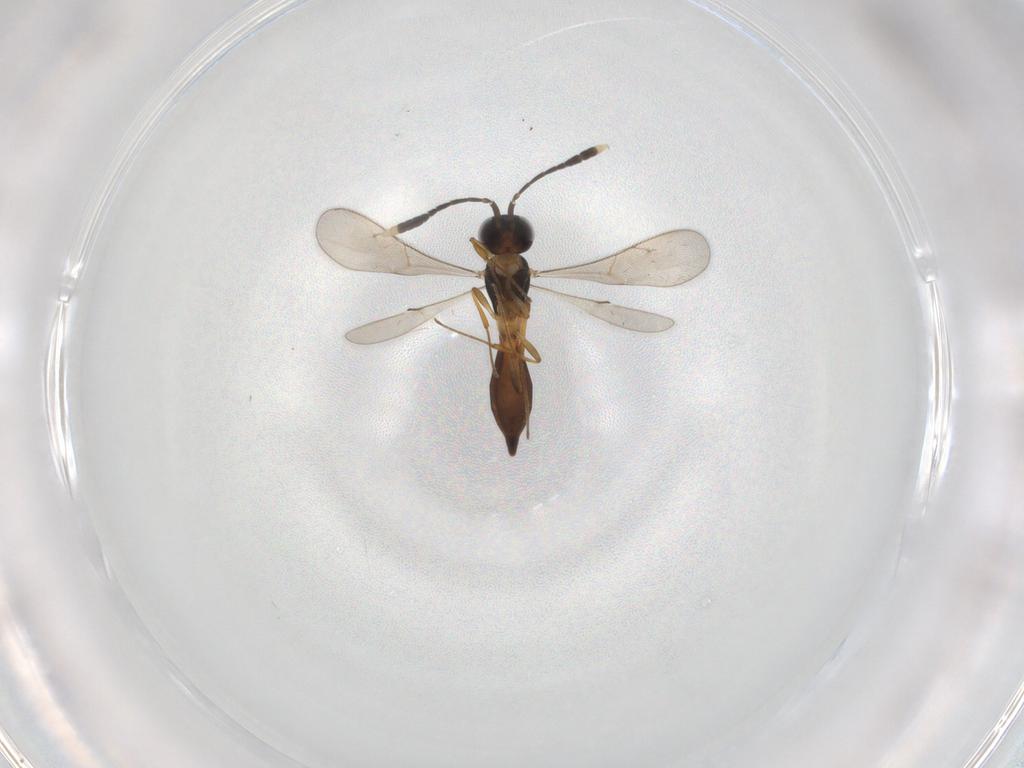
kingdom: Animalia
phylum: Arthropoda
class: Insecta
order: Hymenoptera
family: Scelionidae
